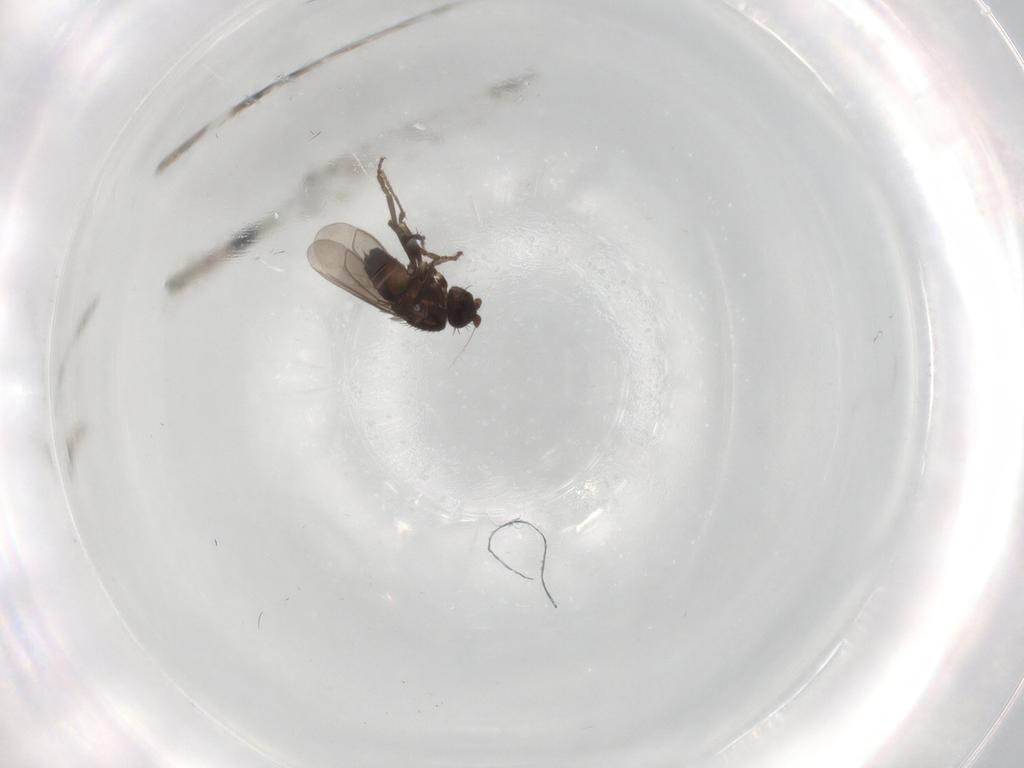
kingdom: Animalia
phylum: Arthropoda
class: Insecta
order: Diptera
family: Sphaeroceridae
